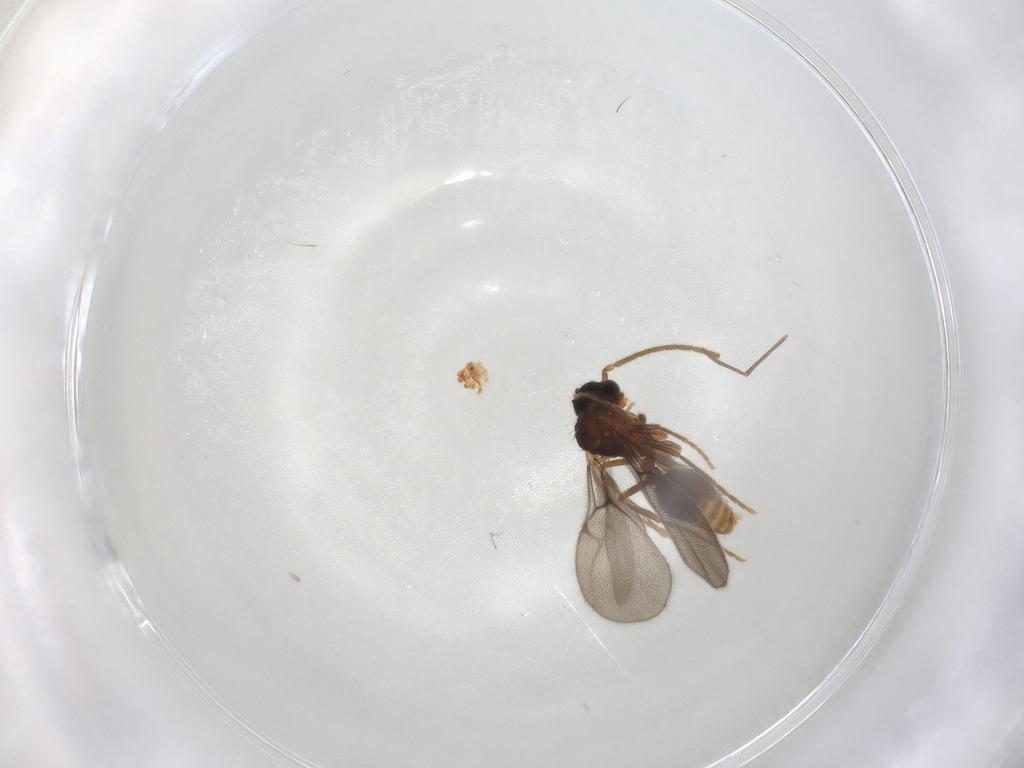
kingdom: Animalia
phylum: Arthropoda
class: Insecta
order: Hymenoptera
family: Formicidae
